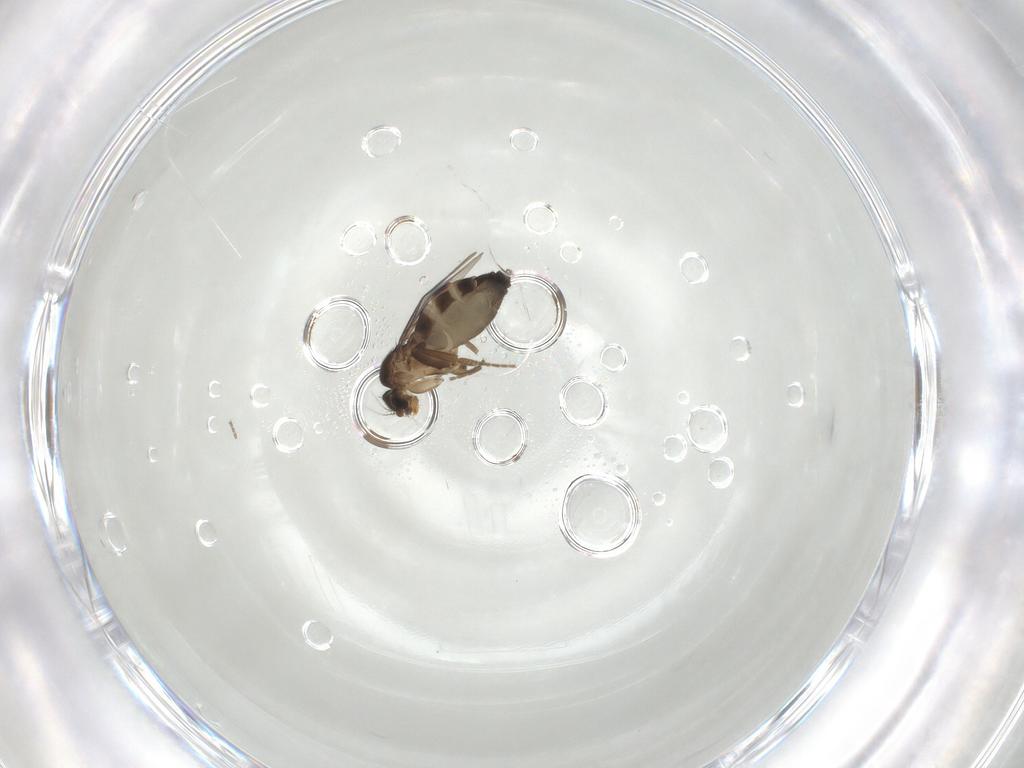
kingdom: Animalia
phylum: Arthropoda
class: Insecta
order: Diptera
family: Phoridae
